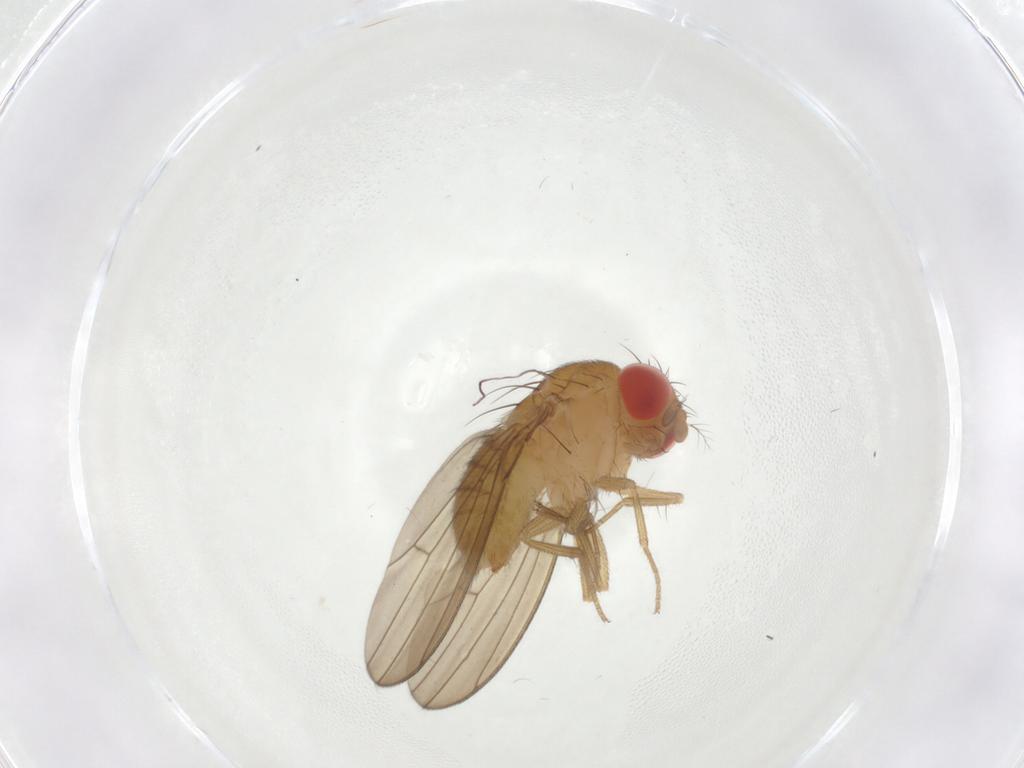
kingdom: Animalia
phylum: Arthropoda
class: Insecta
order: Diptera
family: Drosophilidae
